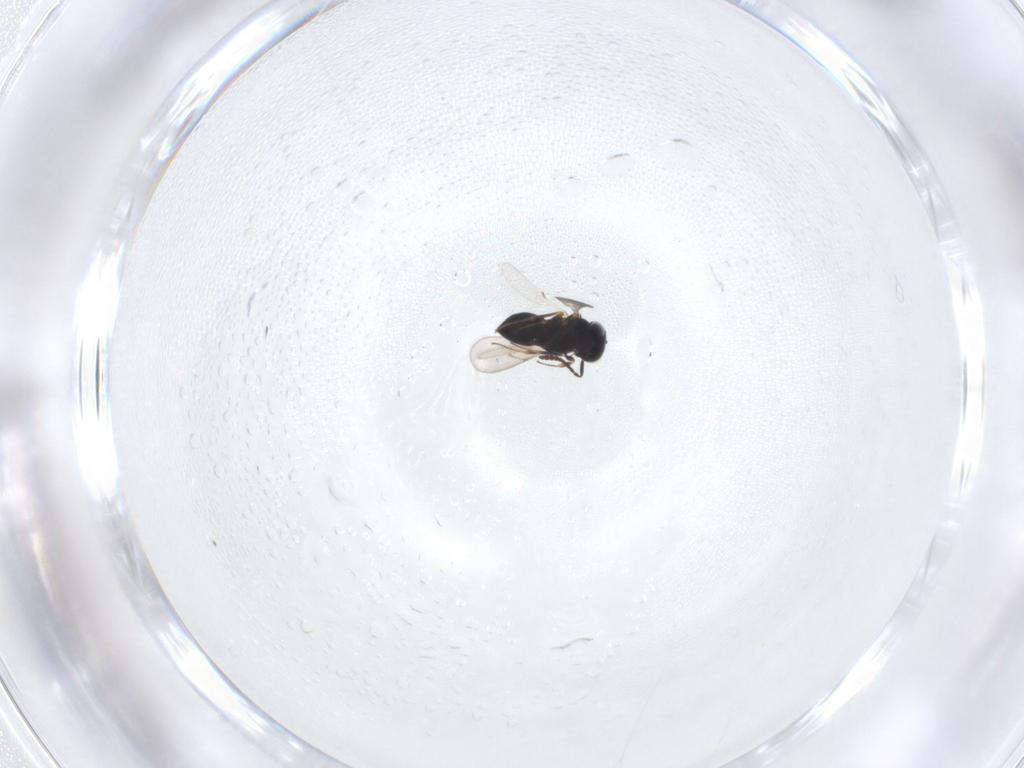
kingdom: Animalia
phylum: Arthropoda
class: Insecta
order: Hymenoptera
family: Scelionidae
